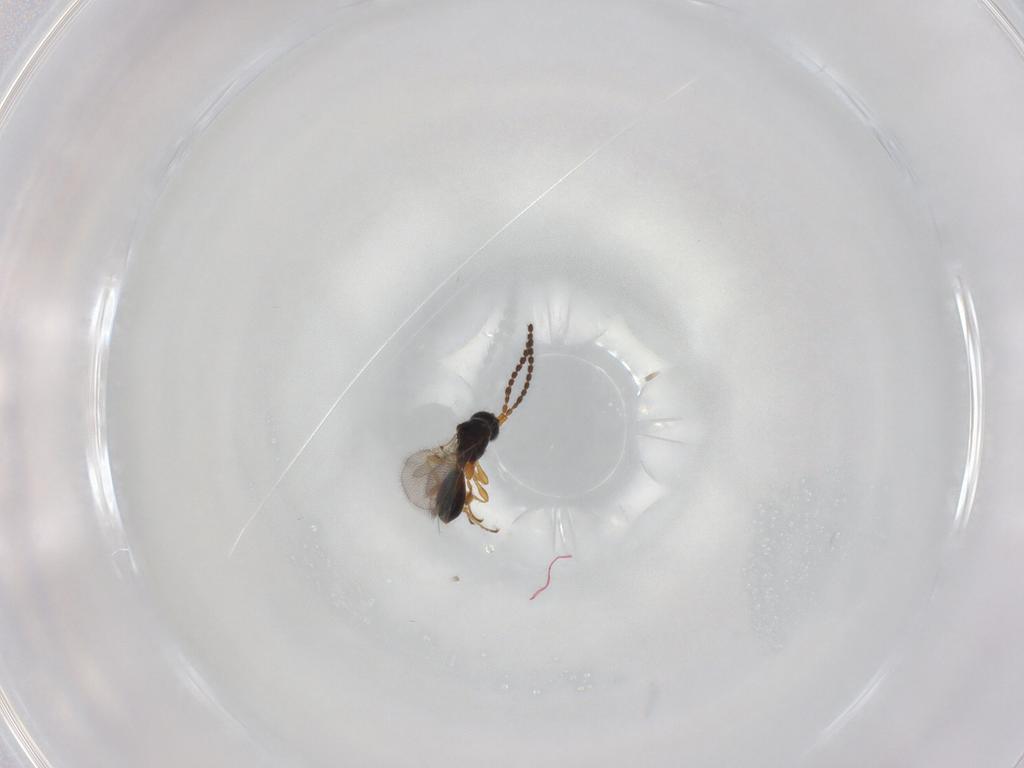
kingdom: Animalia
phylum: Arthropoda
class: Insecta
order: Hymenoptera
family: Diapriidae
